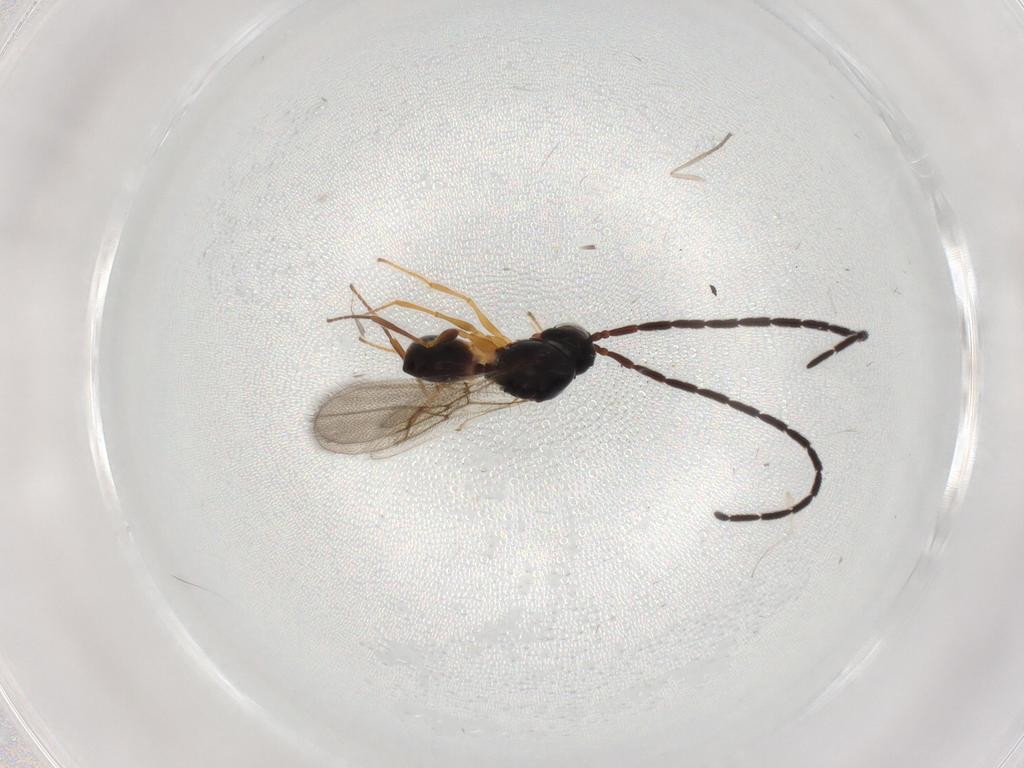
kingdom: Animalia
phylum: Arthropoda
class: Insecta
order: Hymenoptera
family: Figitidae
